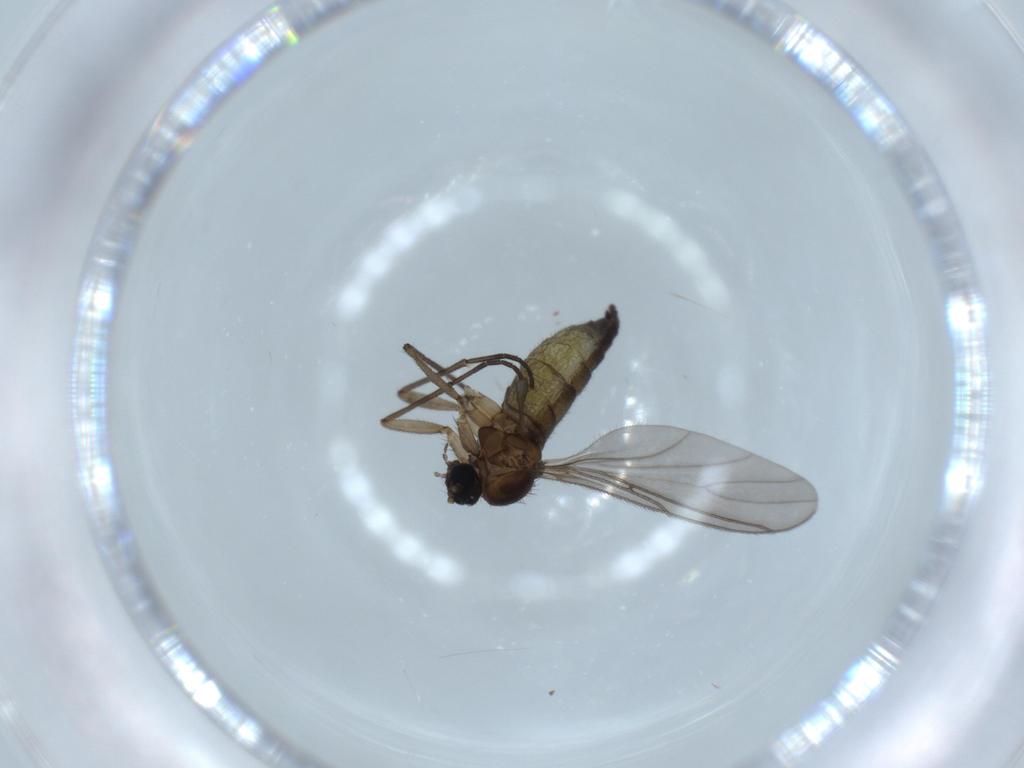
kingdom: Animalia
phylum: Arthropoda
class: Insecta
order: Diptera
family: Sciaridae
